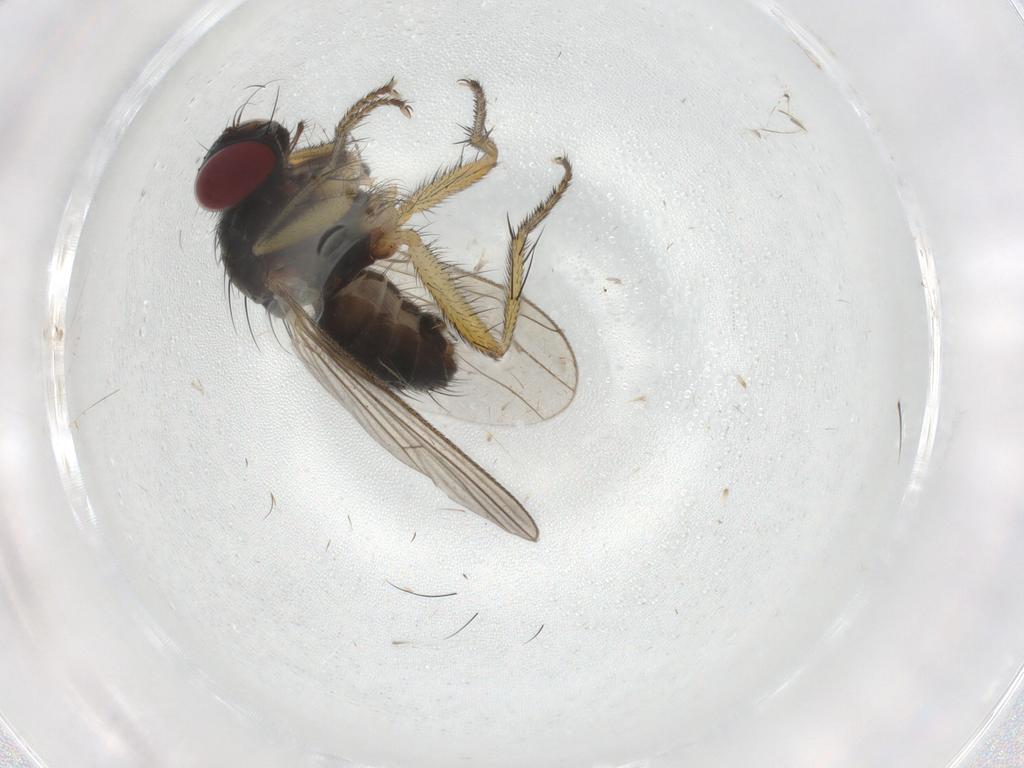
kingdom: Animalia
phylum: Arthropoda
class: Insecta
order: Diptera
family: Muscidae
